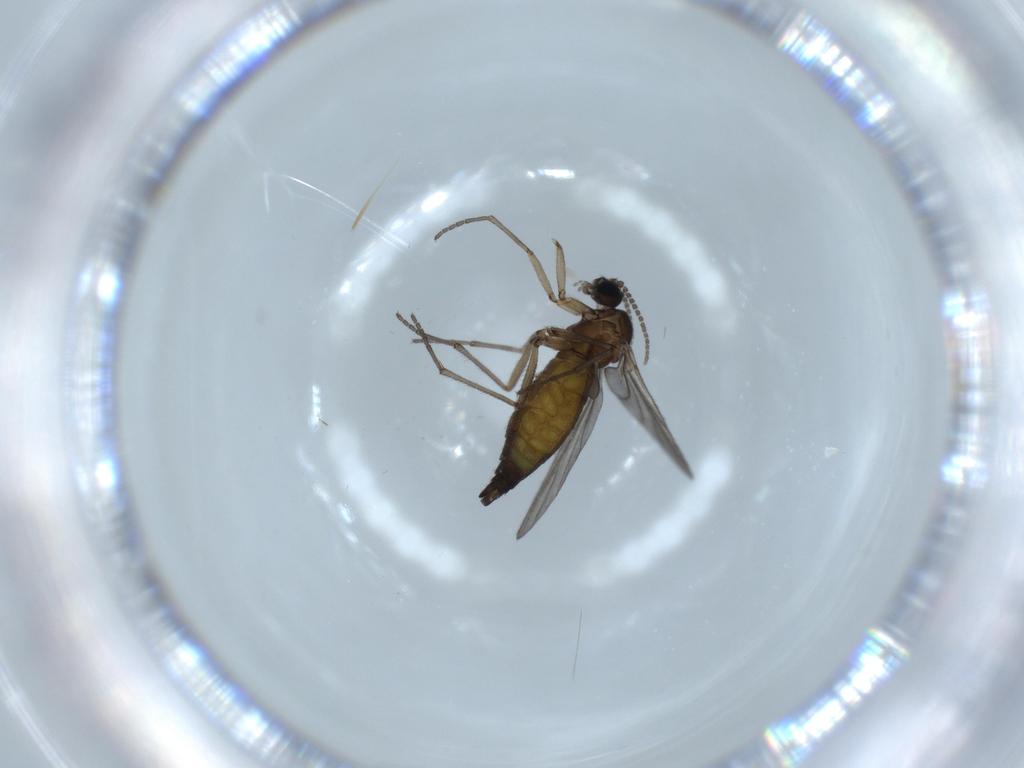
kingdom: Animalia
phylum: Arthropoda
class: Insecta
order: Diptera
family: Sciaridae
